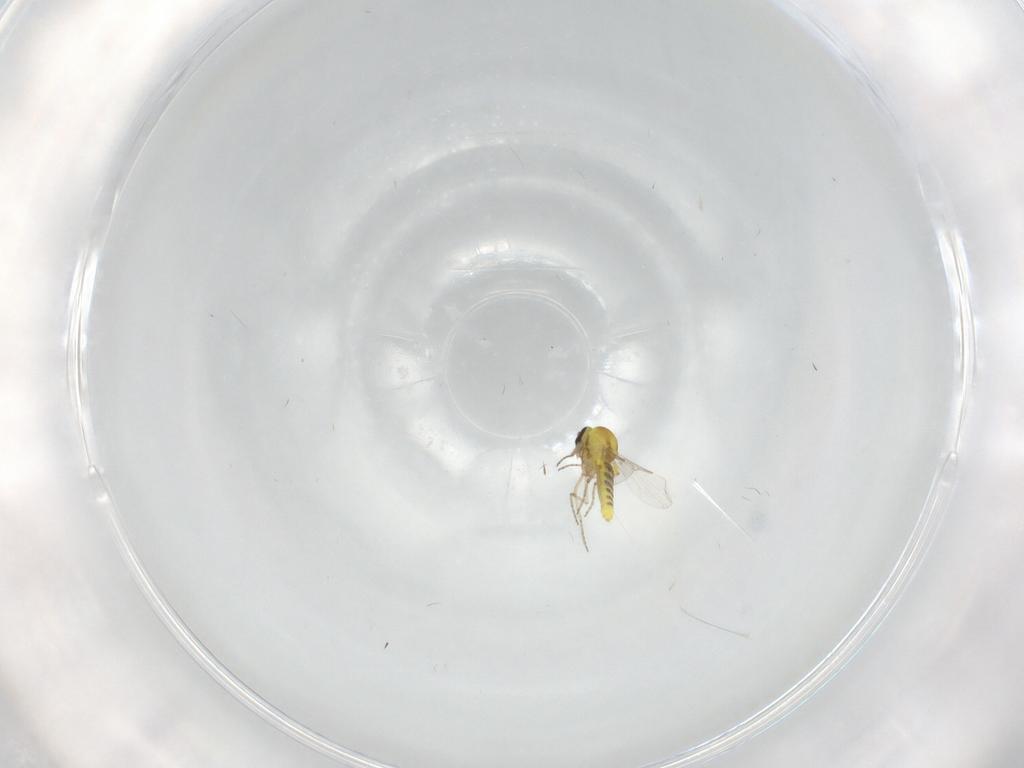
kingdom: Animalia
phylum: Arthropoda
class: Insecta
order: Diptera
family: Ceratopogonidae
